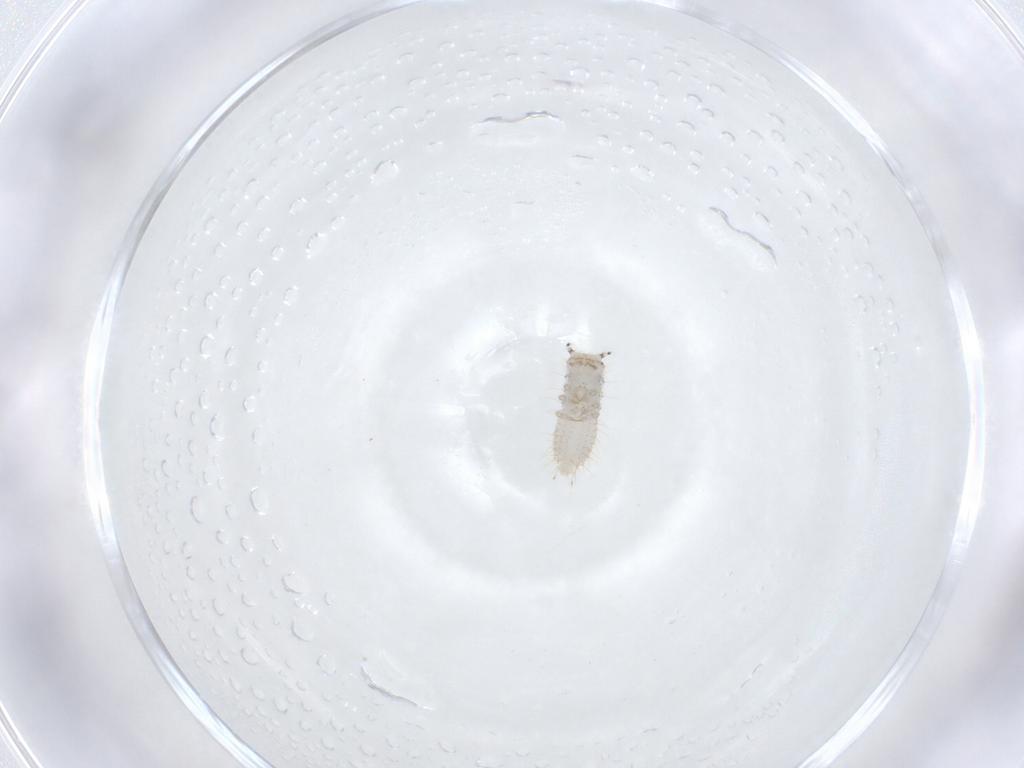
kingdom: Animalia
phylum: Arthropoda
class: Insecta
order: Coleoptera
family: Staphylinidae
